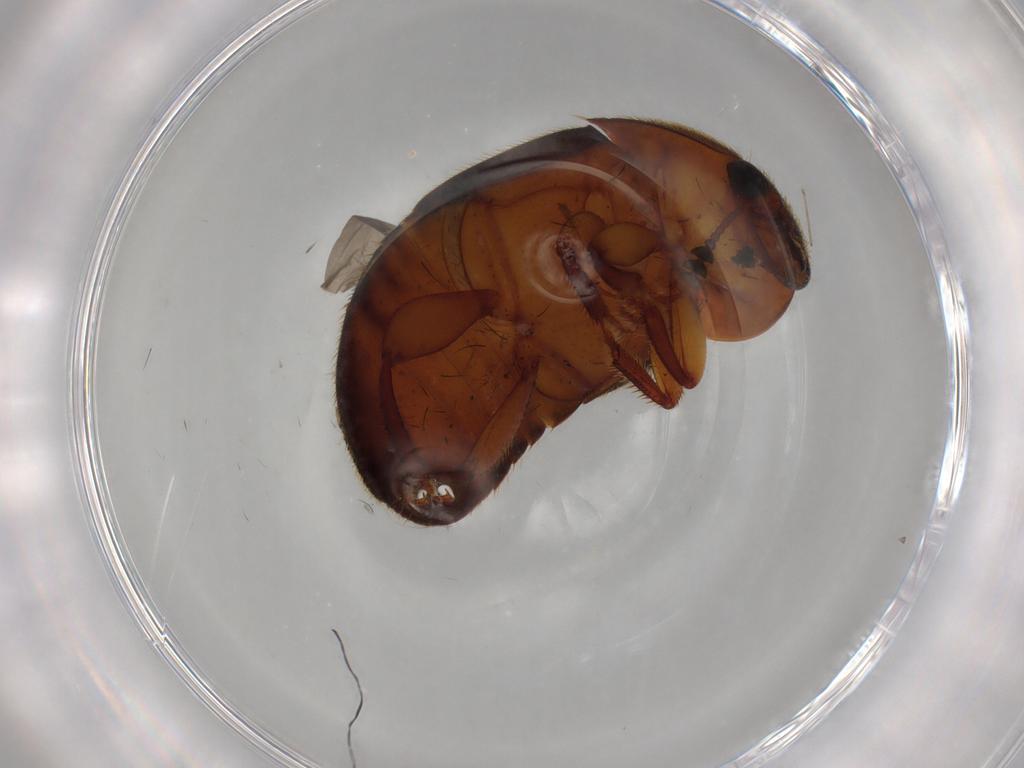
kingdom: Animalia
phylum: Arthropoda
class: Insecta
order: Coleoptera
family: Nitidulidae
